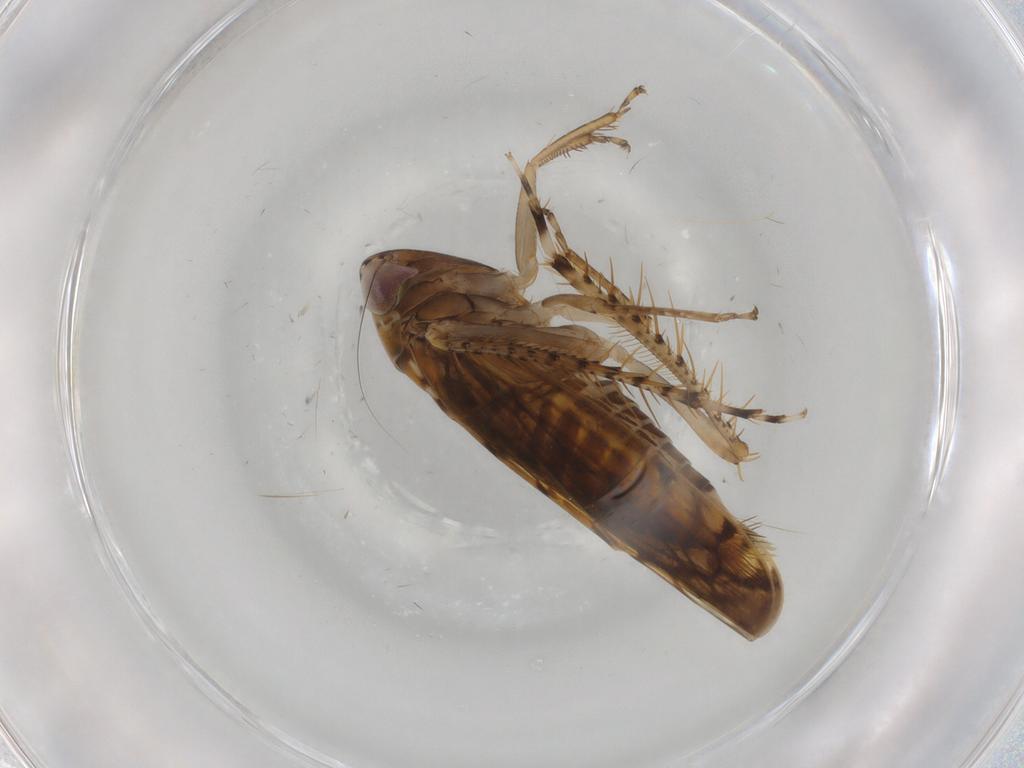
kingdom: Animalia
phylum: Arthropoda
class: Insecta
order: Hemiptera
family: Cicadellidae
